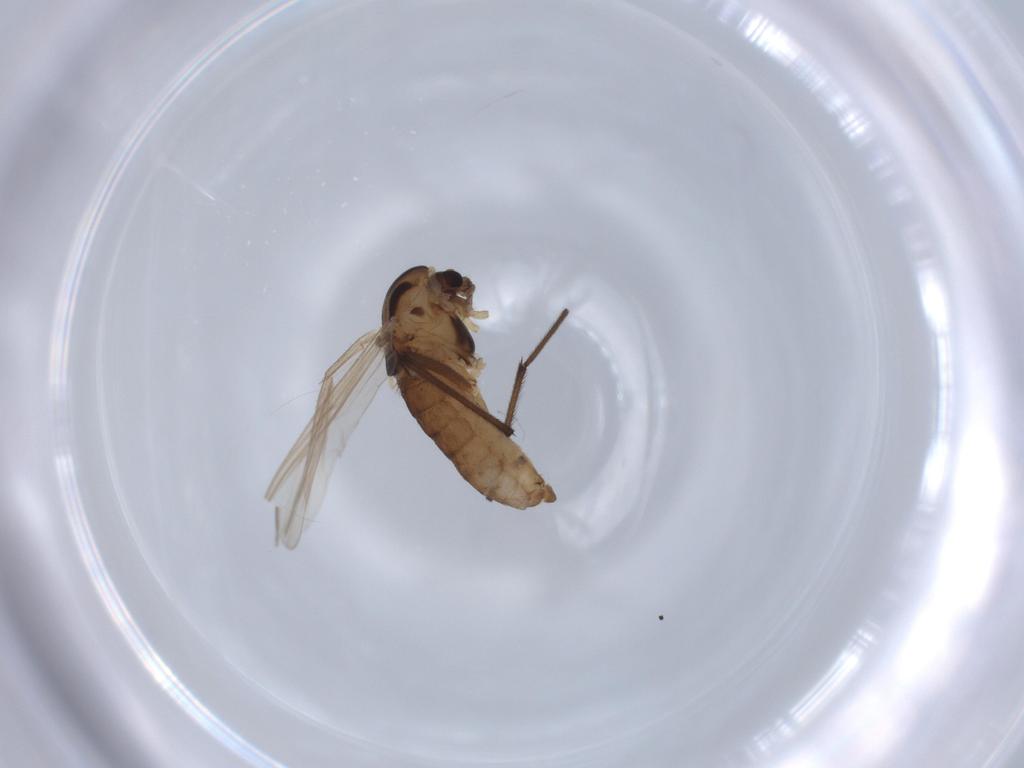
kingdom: Animalia
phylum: Arthropoda
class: Insecta
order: Diptera
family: Chironomidae
